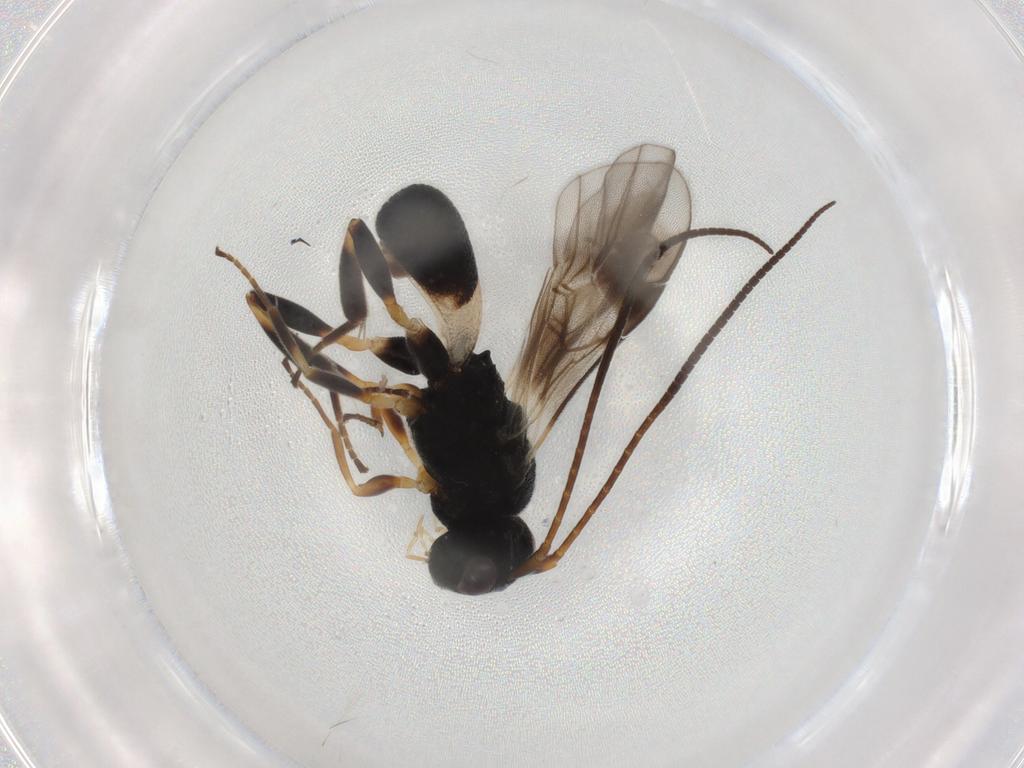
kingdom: Animalia
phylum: Arthropoda
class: Insecta
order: Hymenoptera
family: Braconidae
